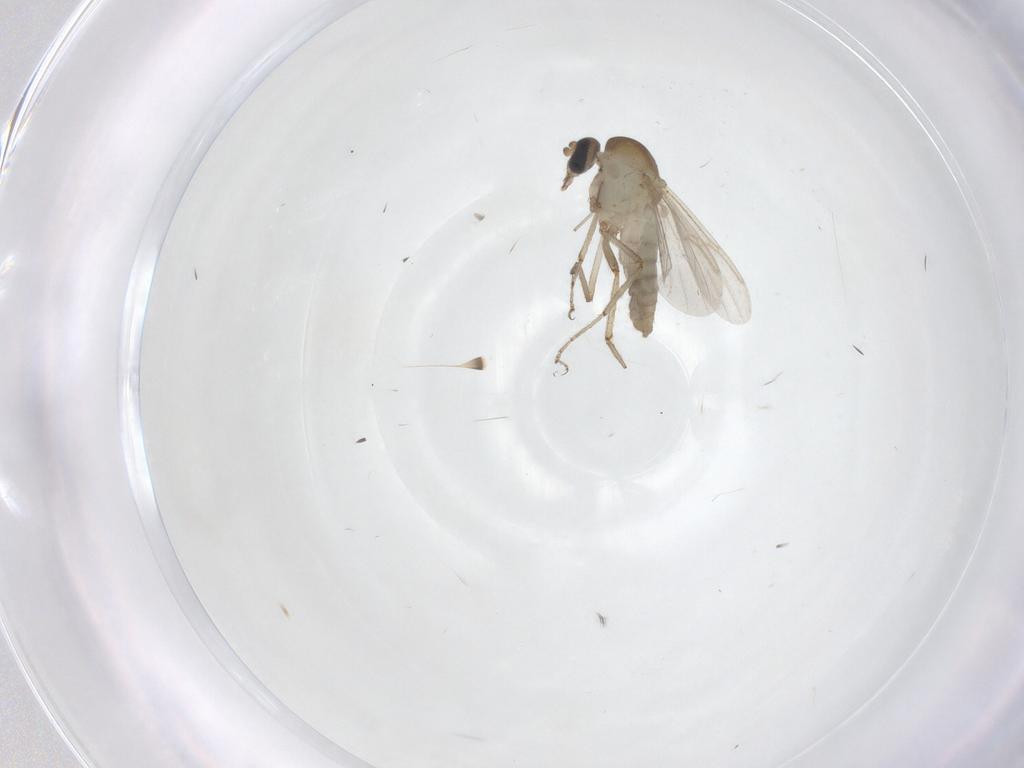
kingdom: Animalia
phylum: Arthropoda
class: Insecta
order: Diptera
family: Ceratopogonidae
